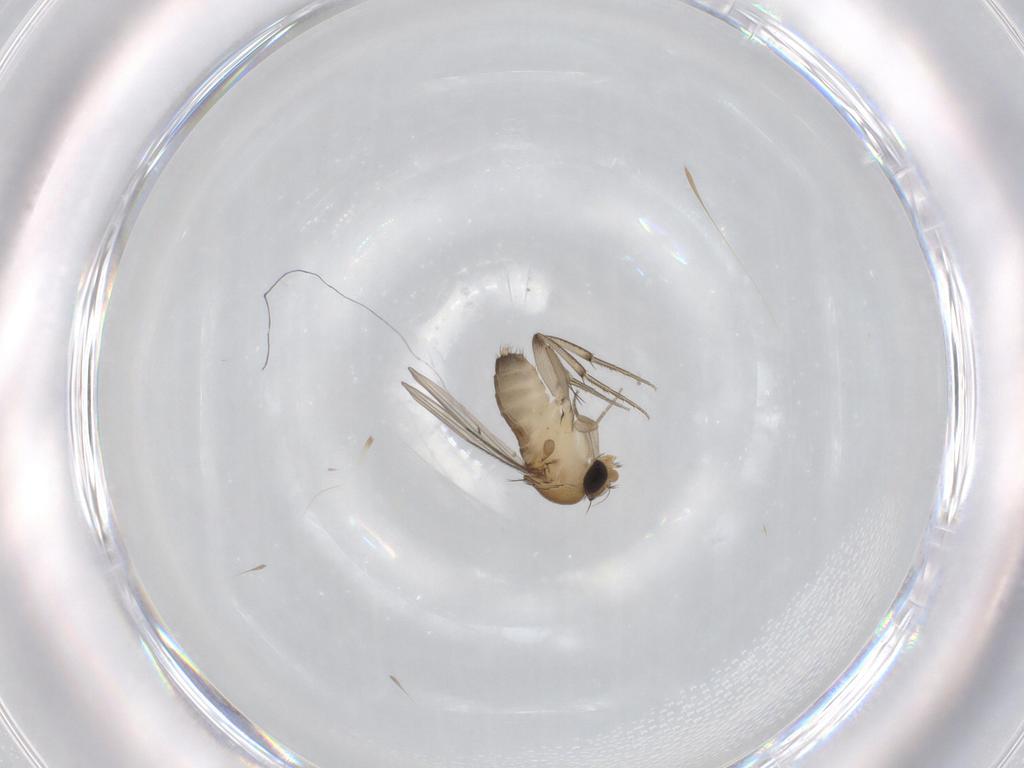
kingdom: Animalia
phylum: Arthropoda
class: Insecta
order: Diptera
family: Phoridae
